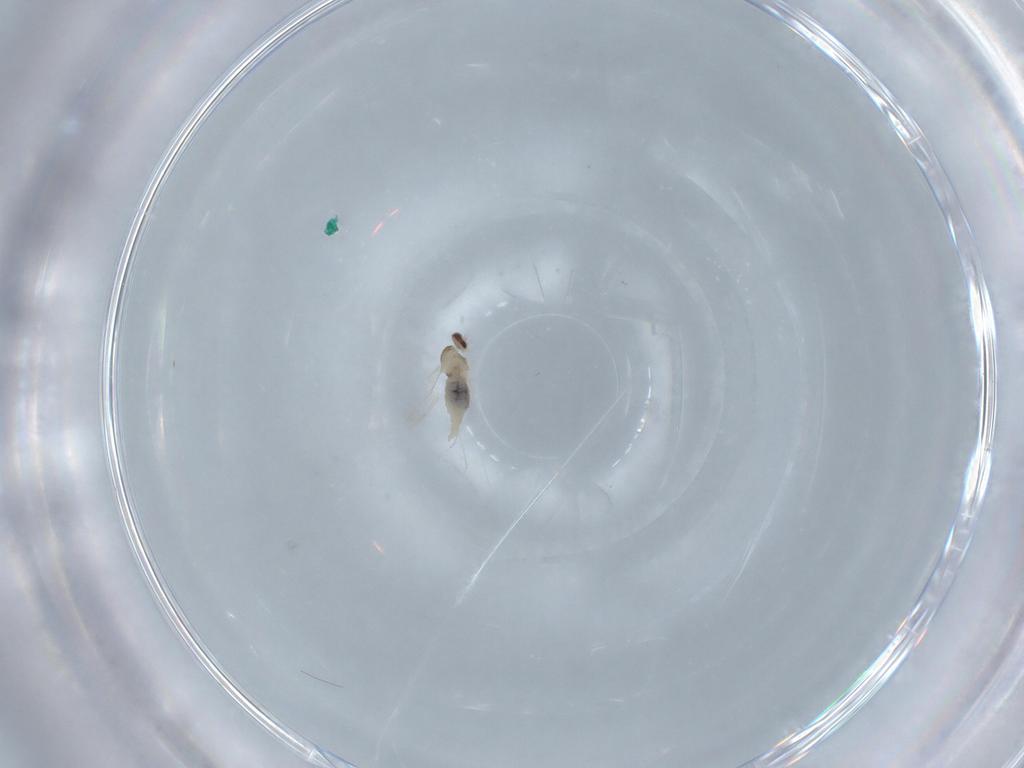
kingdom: Animalia
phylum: Arthropoda
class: Insecta
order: Diptera
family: Cecidomyiidae
